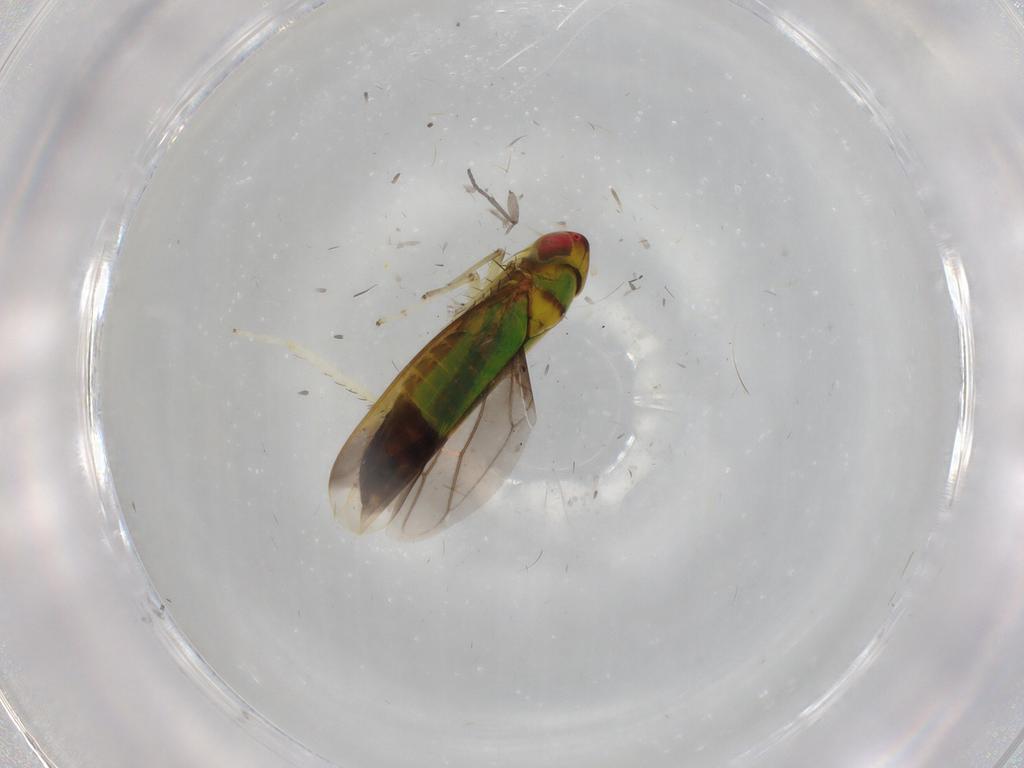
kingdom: Animalia
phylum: Arthropoda
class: Insecta
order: Hemiptera
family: Cicadellidae
